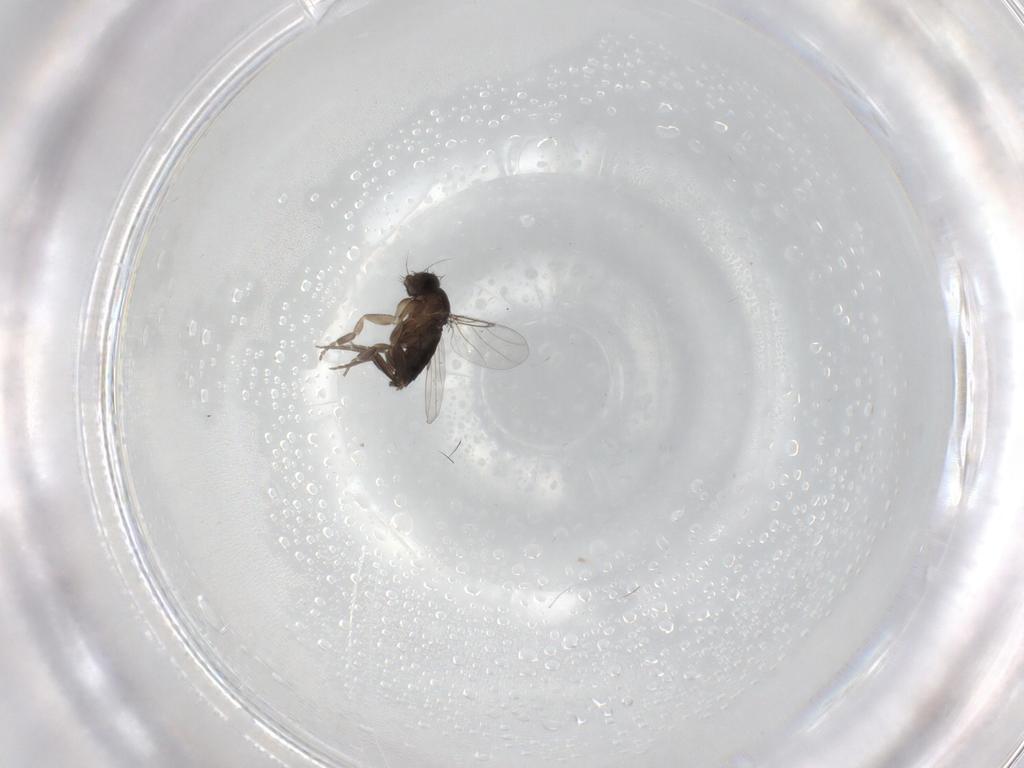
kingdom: Animalia
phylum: Arthropoda
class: Insecta
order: Diptera
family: Phoridae
